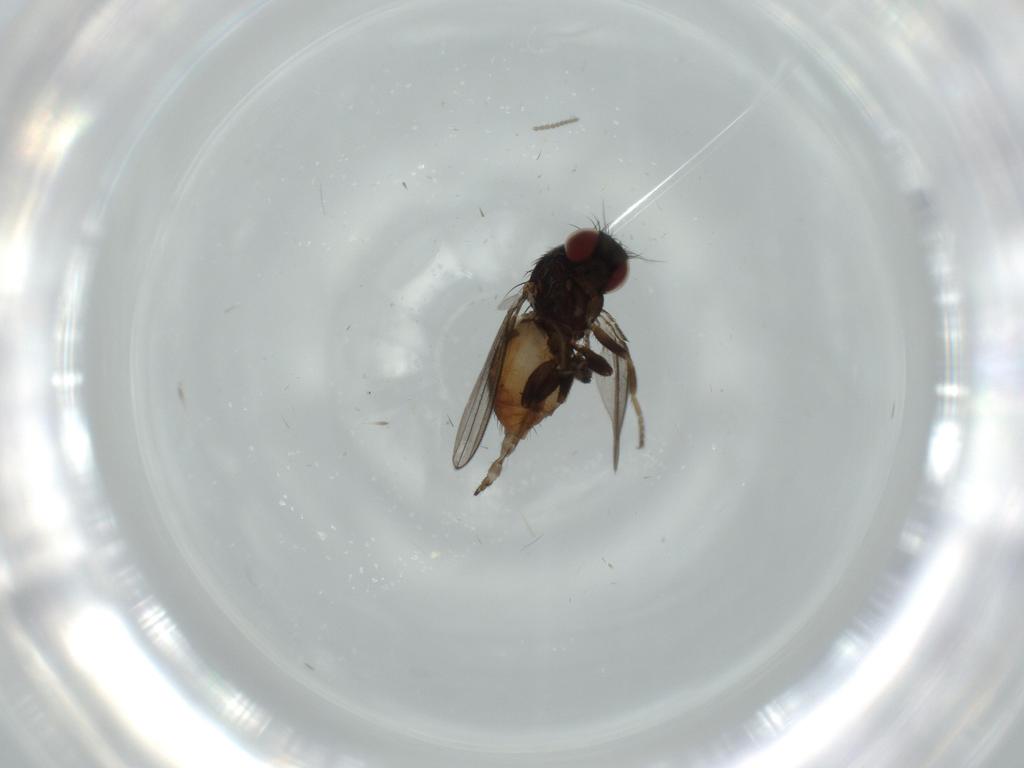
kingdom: Animalia
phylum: Arthropoda
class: Insecta
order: Diptera
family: Milichiidae
